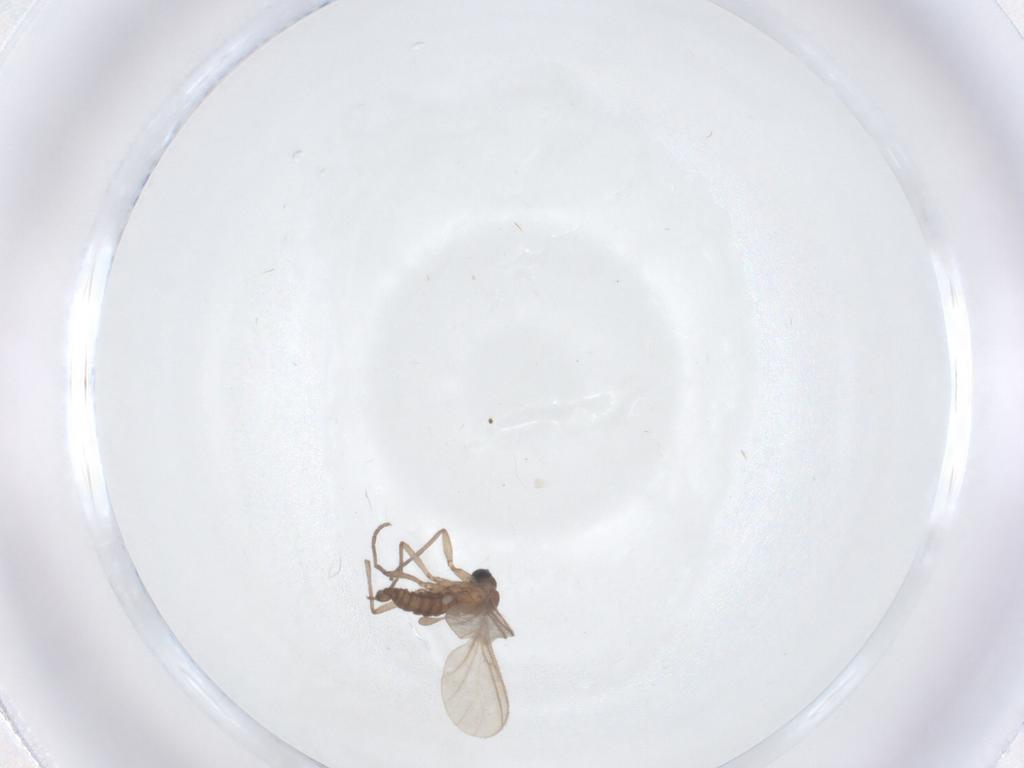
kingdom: Animalia
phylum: Arthropoda
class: Insecta
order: Diptera
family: Sciaridae
